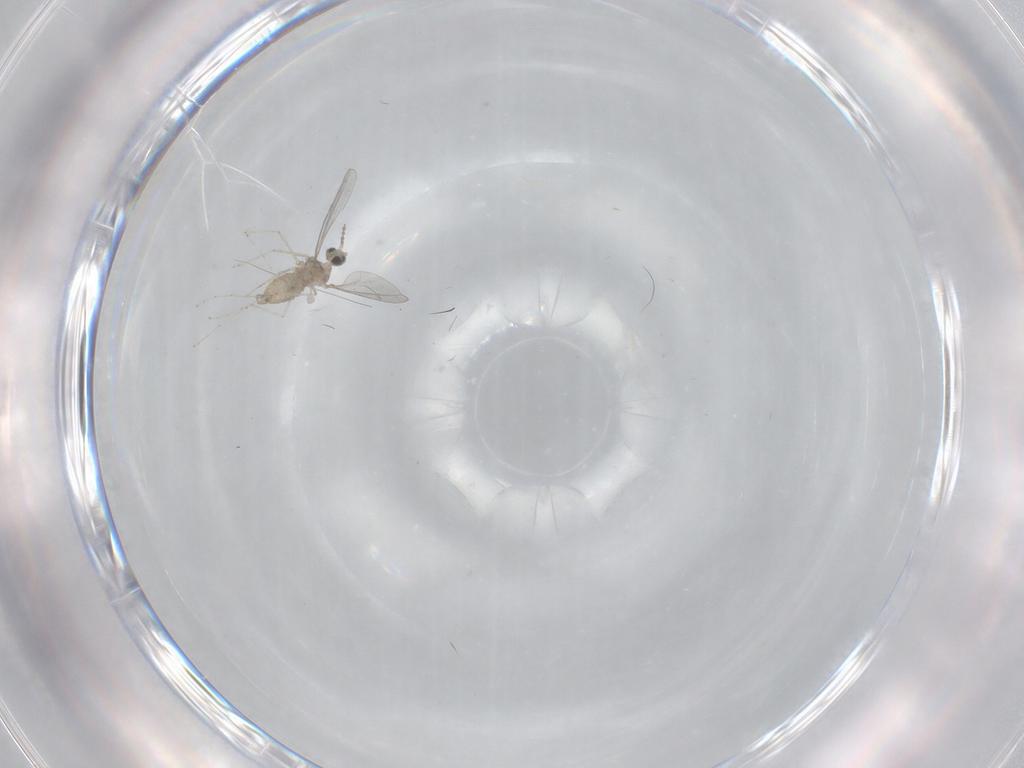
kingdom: Animalia
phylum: Arthropoda
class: Insecta
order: Diptera
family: Cecidomyiidae
